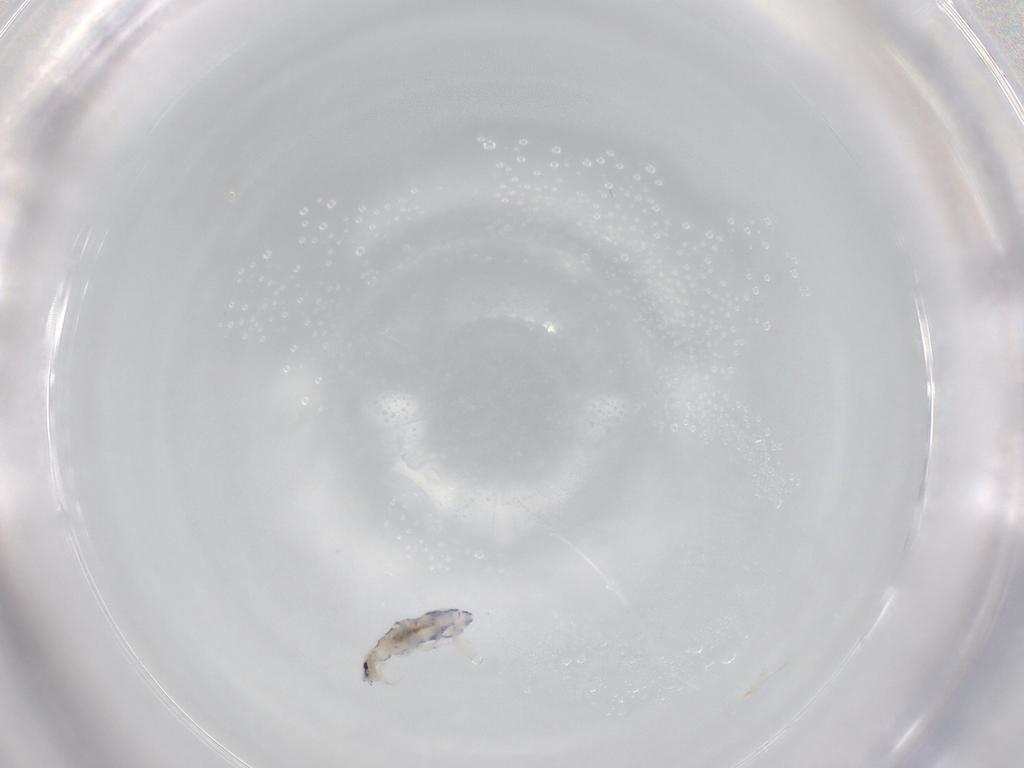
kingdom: Animalia
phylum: Arthropoda
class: Collembola
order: Entomobryomorpha
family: Entomobryidae
